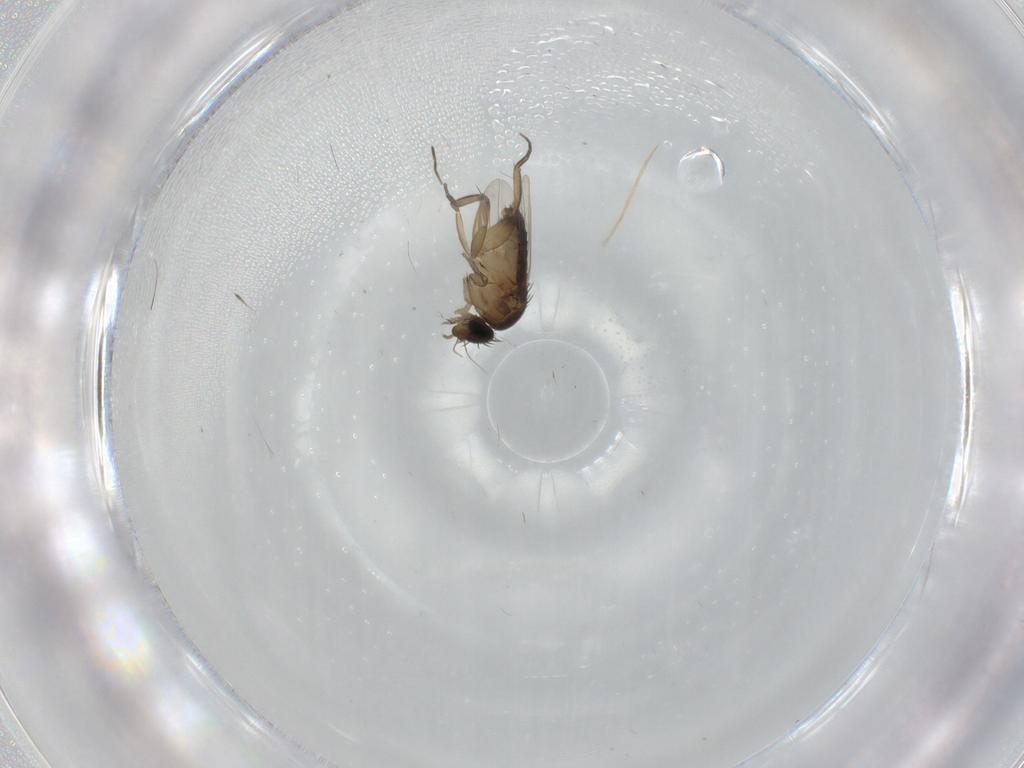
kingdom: Animalia
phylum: Arthropoda
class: Insecta
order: Diptera
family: Phoridae
